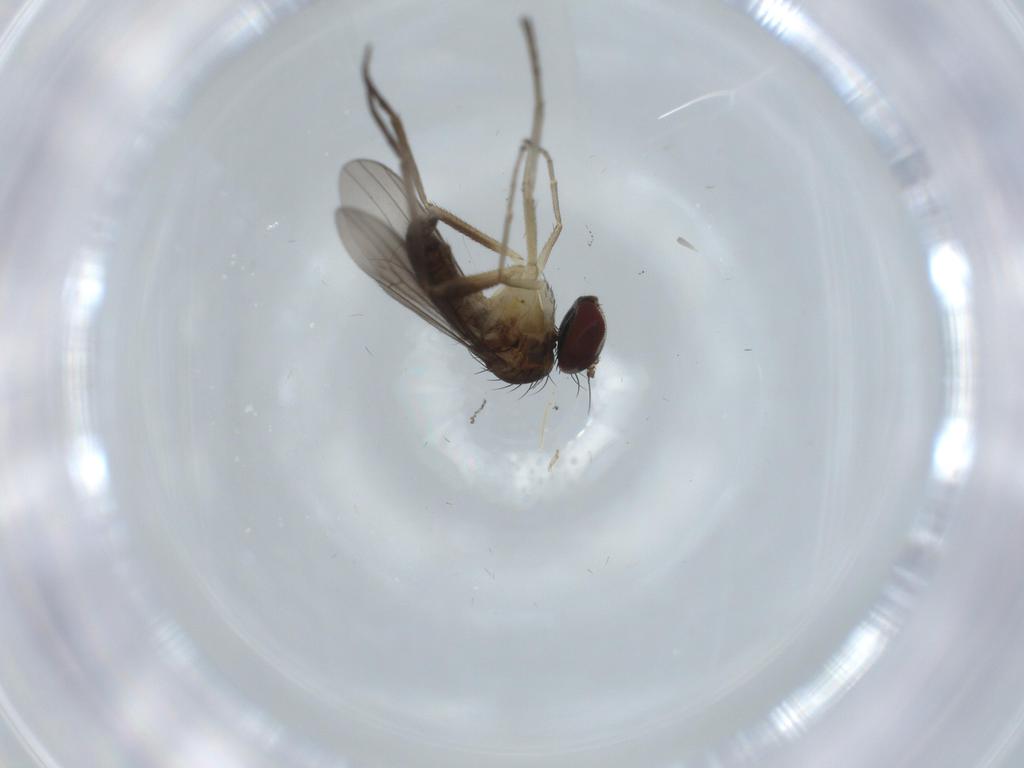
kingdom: Animalia
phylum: Arthropoda
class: Insecta
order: Diptera
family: Dolichopodidae
